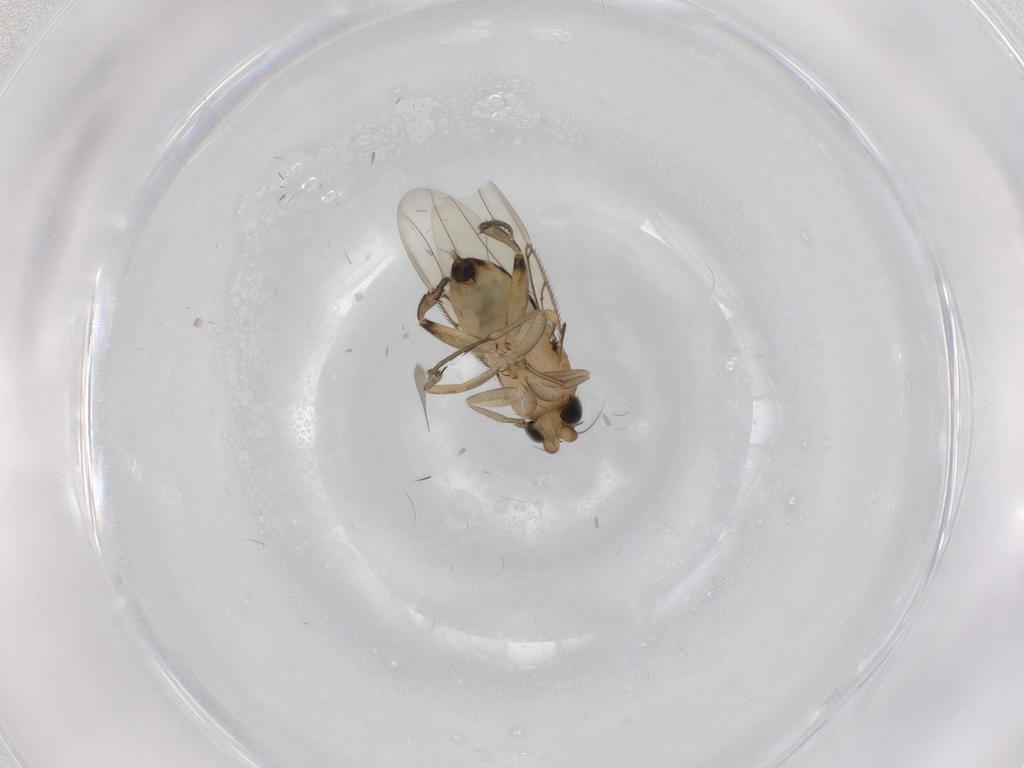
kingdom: Animalia
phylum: Arthropoda
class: Insecta
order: Diptera
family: Phoridae
